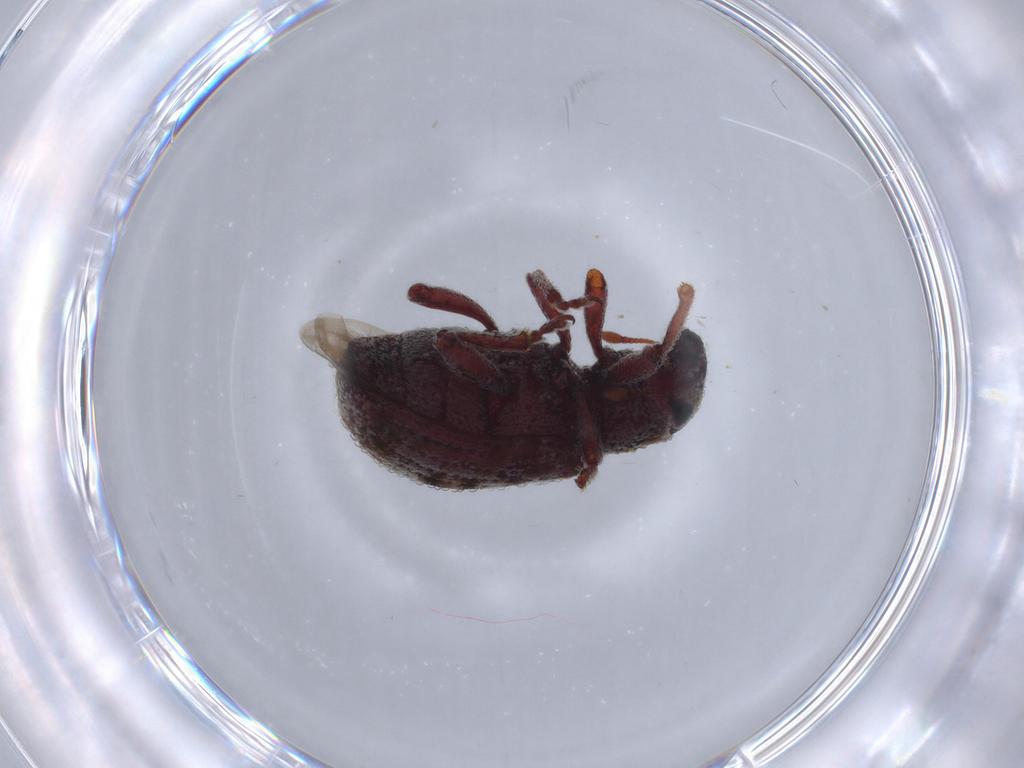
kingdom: Animalia
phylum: Arthropoda
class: Insecta
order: Coleoptera
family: Curculionidae
